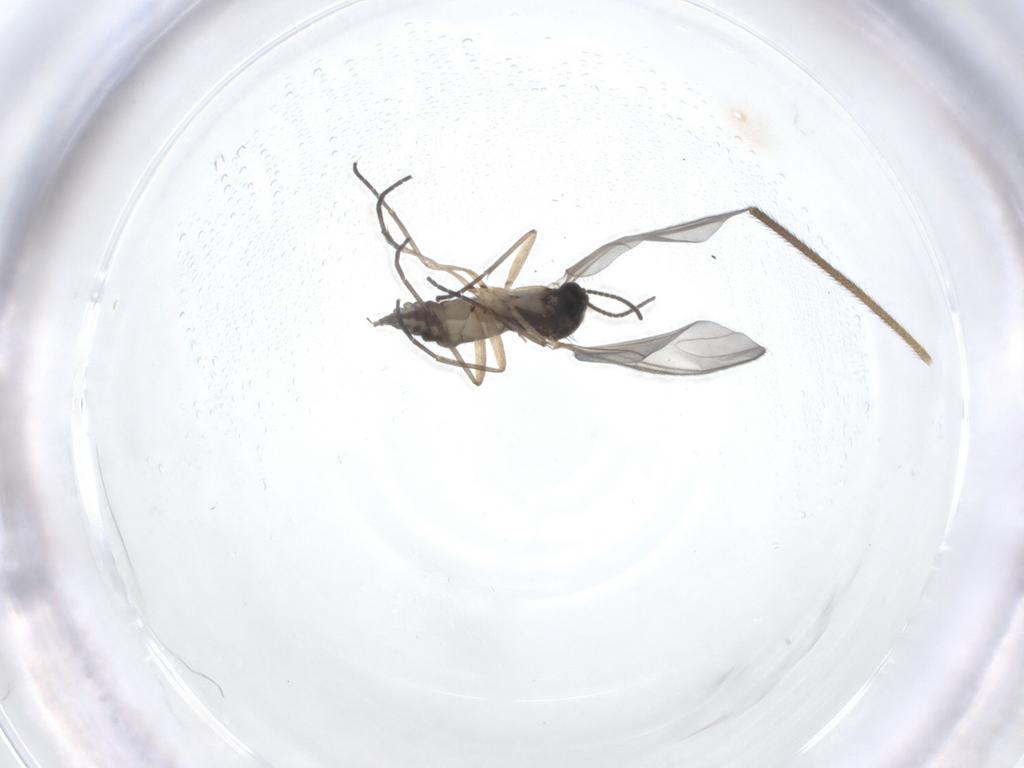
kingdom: Animalia
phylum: Arthropoda
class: Insecta
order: Diptera
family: Sciaridae
